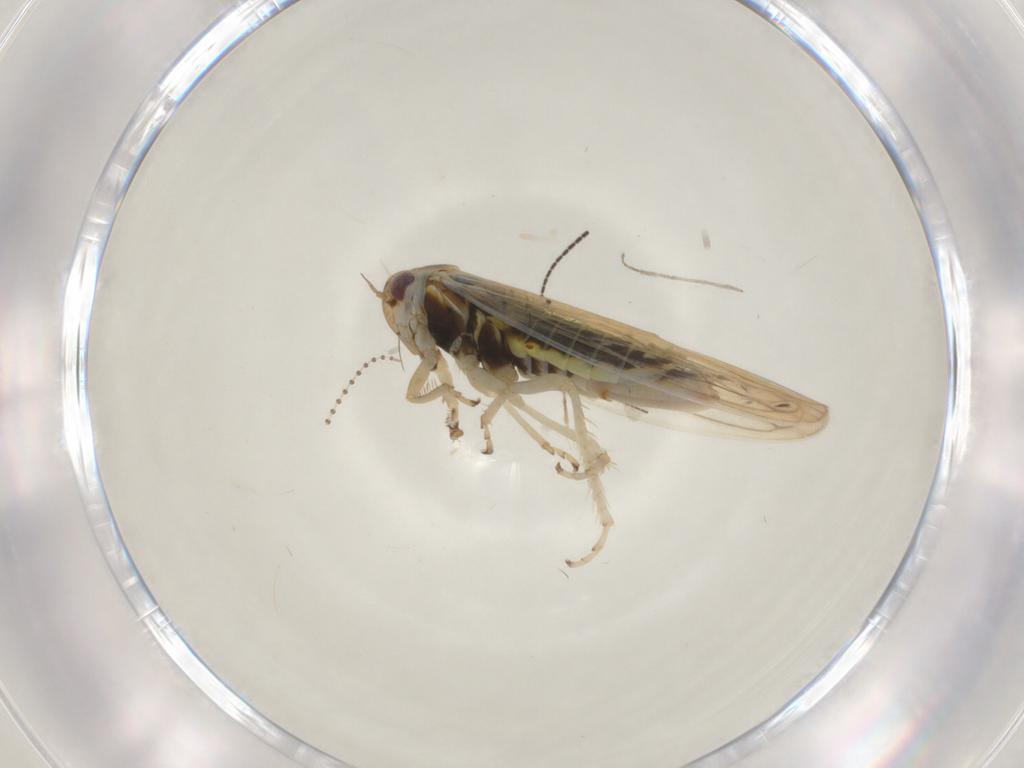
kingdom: Animalia
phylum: Arthropoda
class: Insecta
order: Hemiptera
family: Cicadellidae
